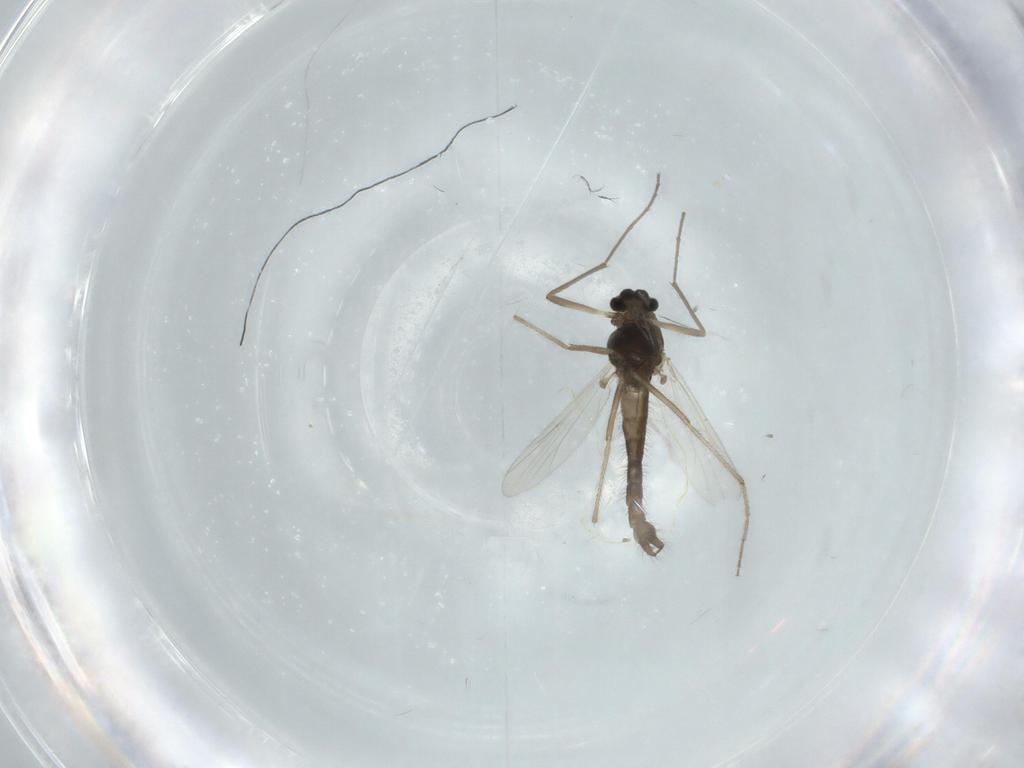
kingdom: Animalia
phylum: Arthropoda
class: Insecta
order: Diptera
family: Chironomidae
